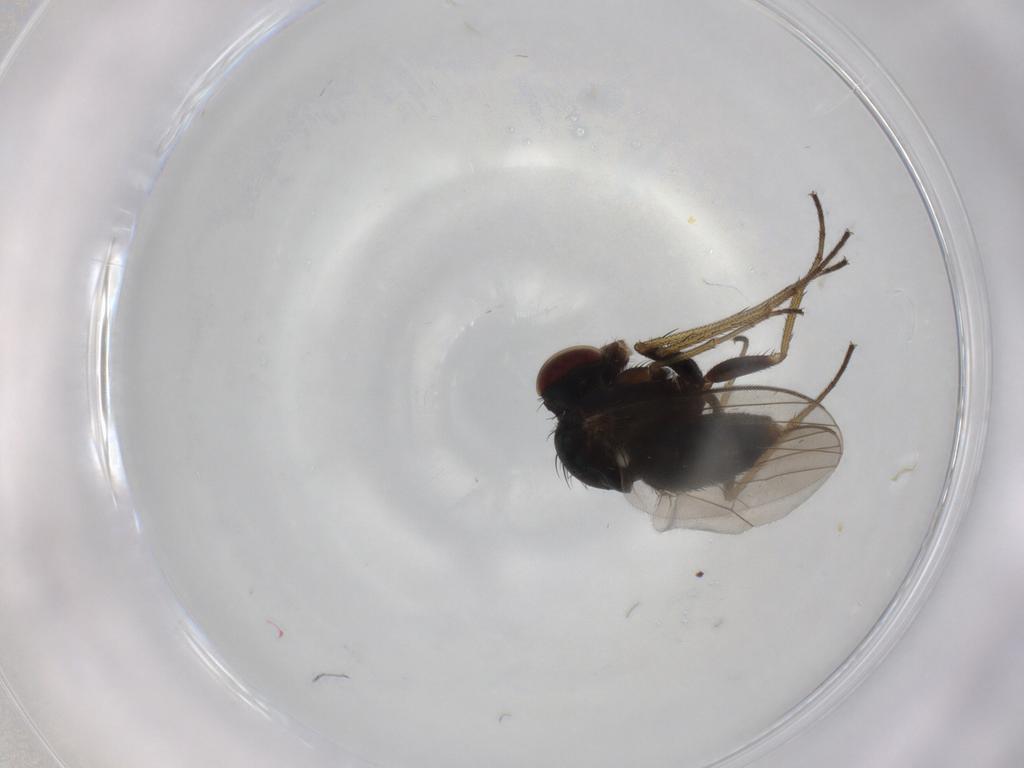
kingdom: Animalia
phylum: Arthropoda
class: Insecta
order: Diptera
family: Dolichopodidae
